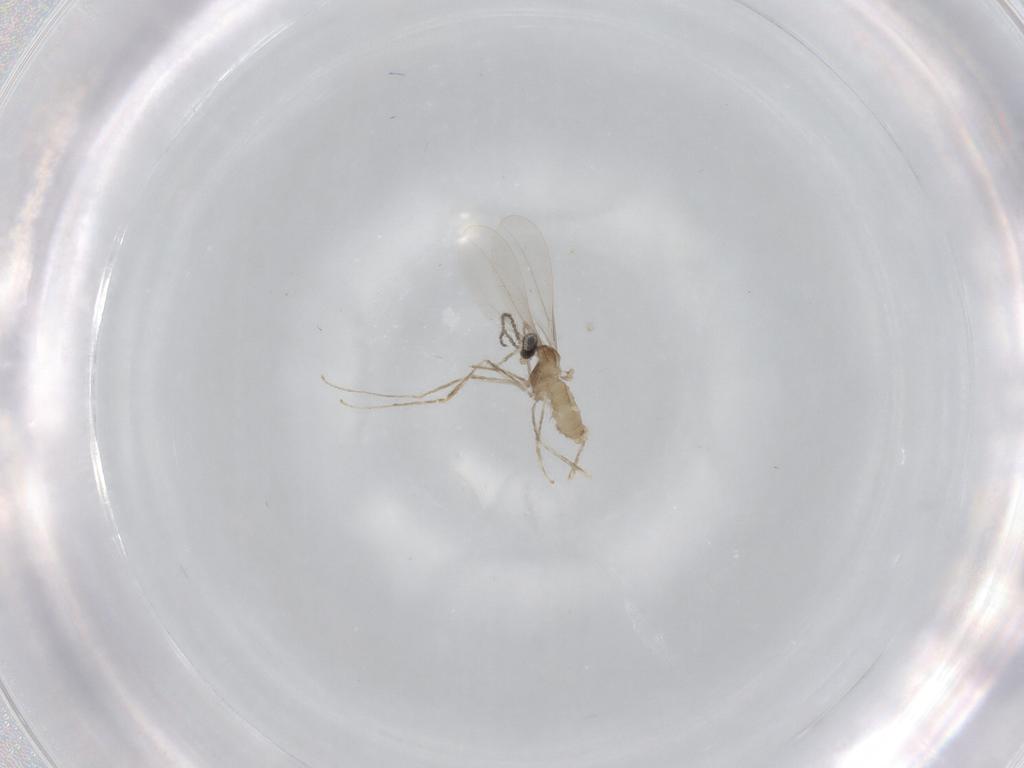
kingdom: Animalia
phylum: Arthropoda
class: Insecta
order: Diptera
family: Cecidomyiidae
